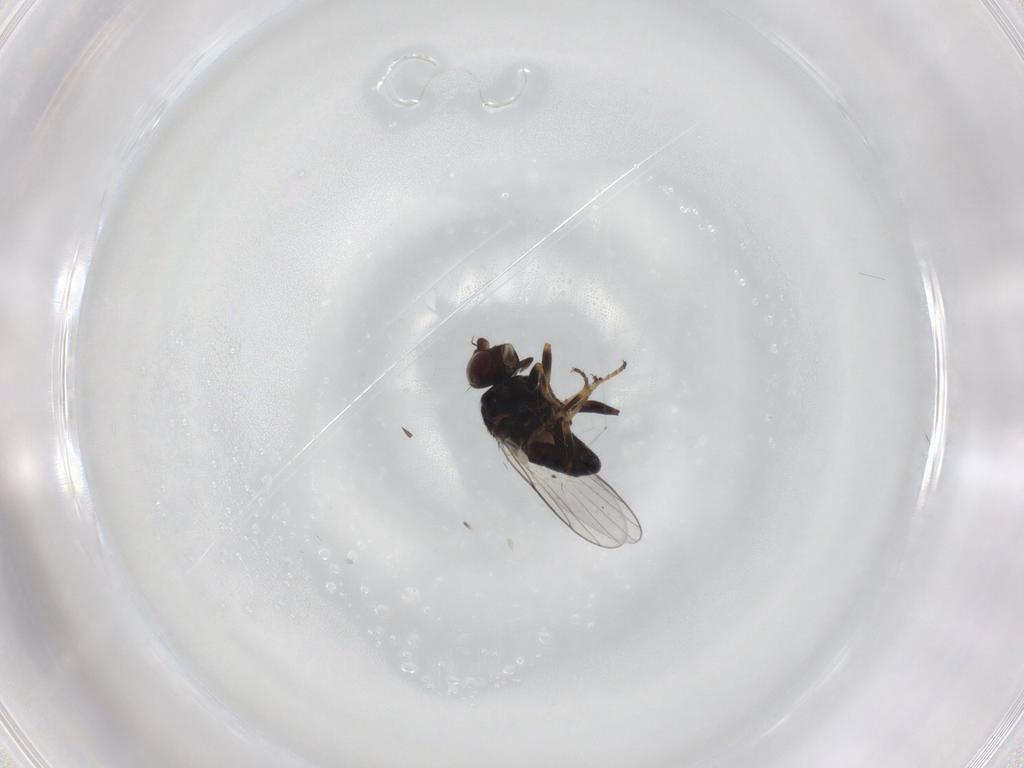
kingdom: Animalia
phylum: Arthropoda
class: Insecta
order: Diptera
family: Chloropidae
